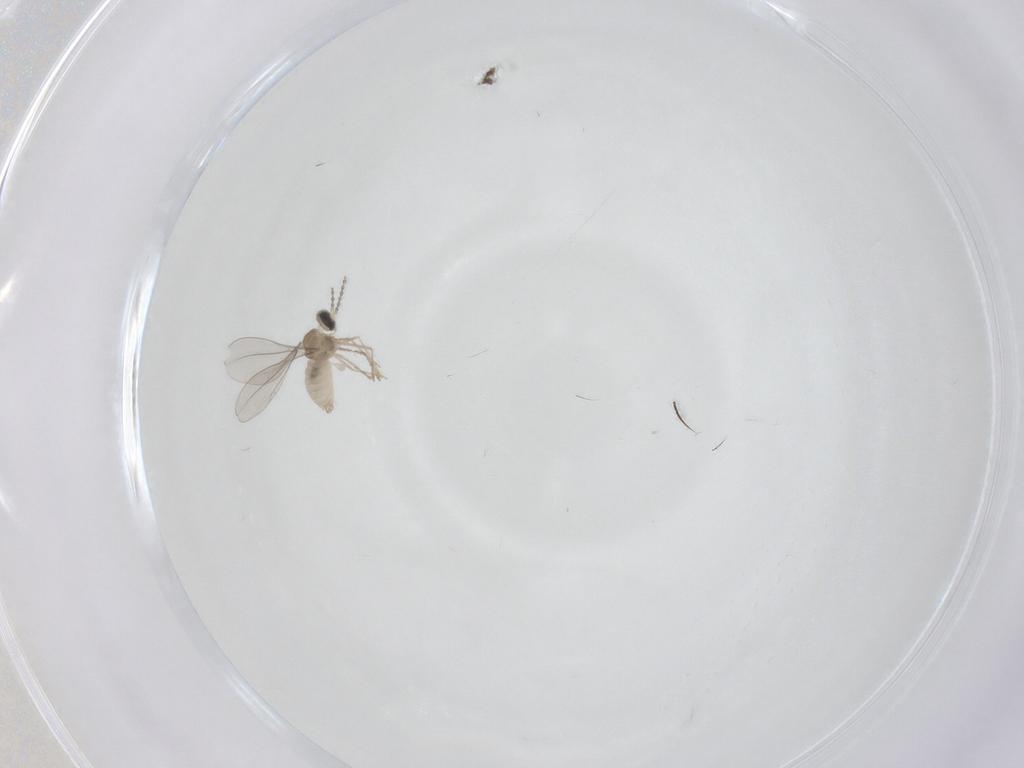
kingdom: Animalia
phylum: Arthropoda
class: Insecta
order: Diptera
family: Cecidomyiidae
